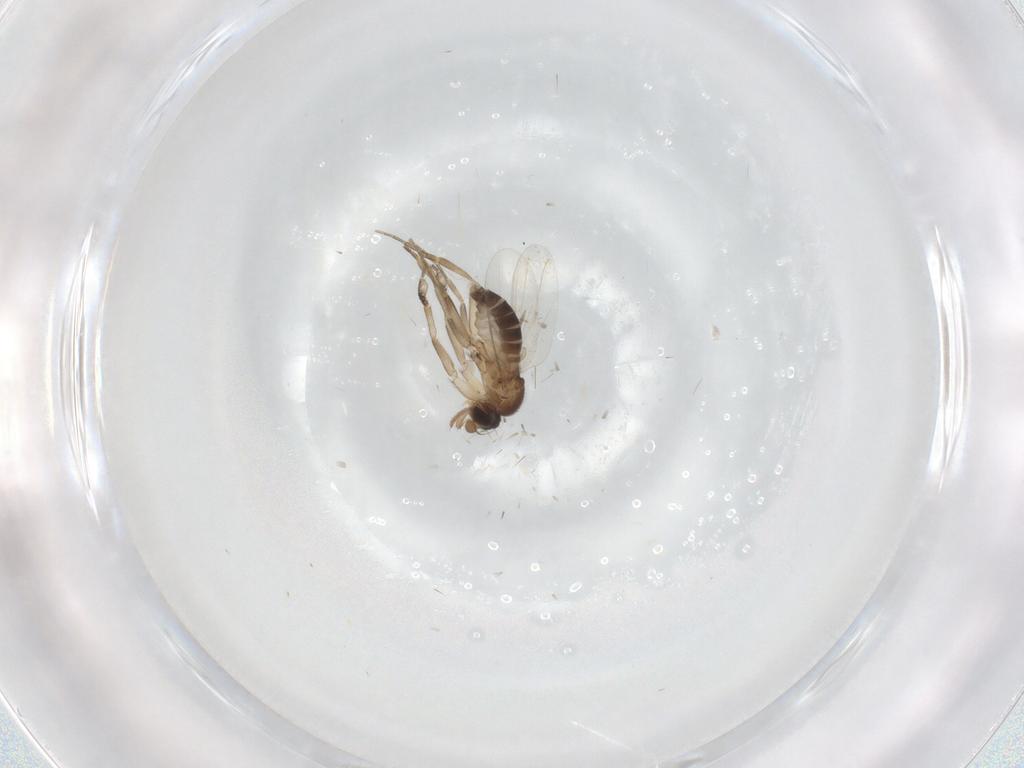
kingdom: Animalia
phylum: Arthropoda
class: Insecta
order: Diptera
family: Phoridae
